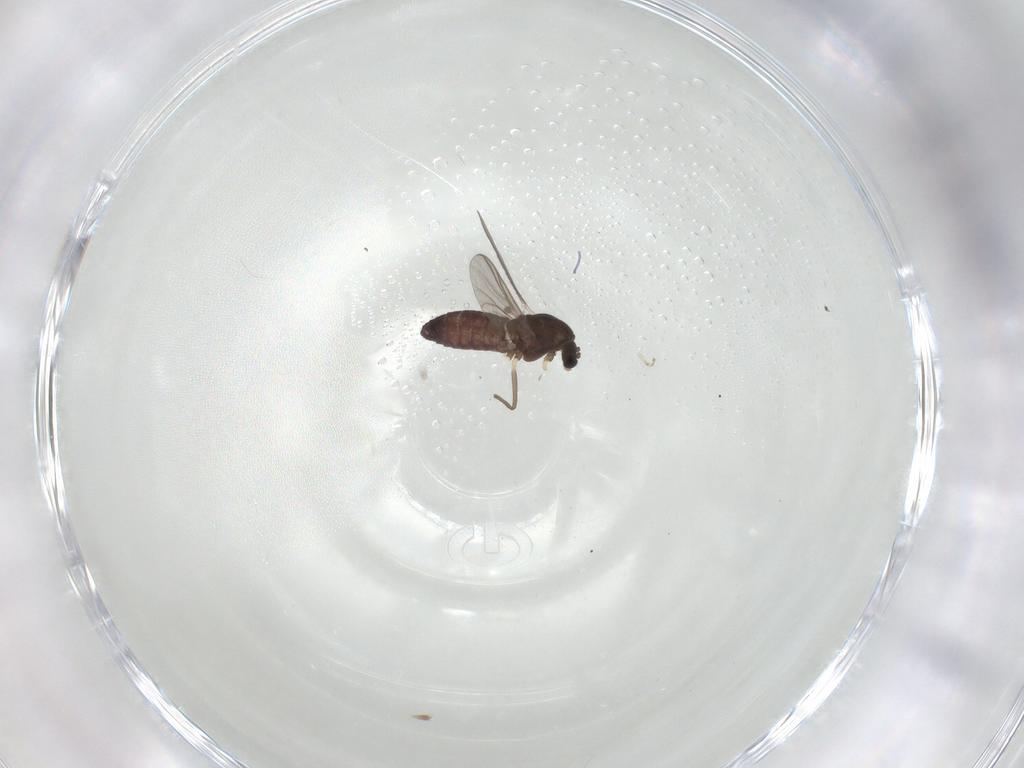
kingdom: Animalia
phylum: Arthropoda
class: Insecta
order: Diptera
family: Chironomidae
